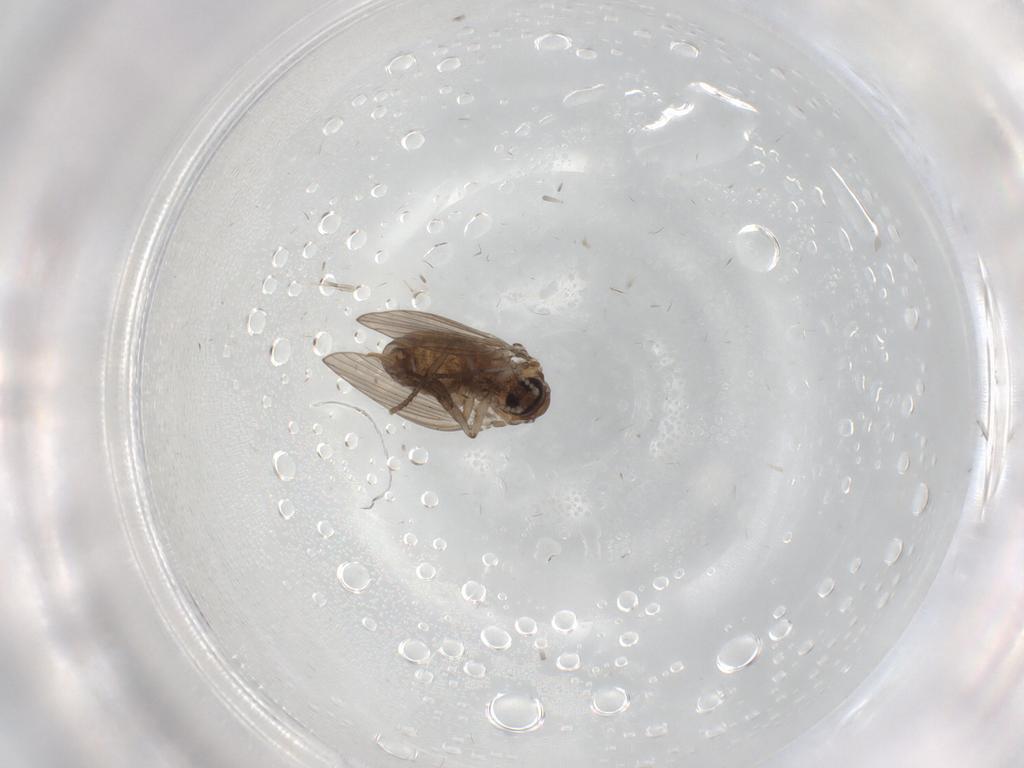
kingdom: Animalia
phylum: Arthropoda
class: Insecta
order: Diptera
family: Psychodidae
